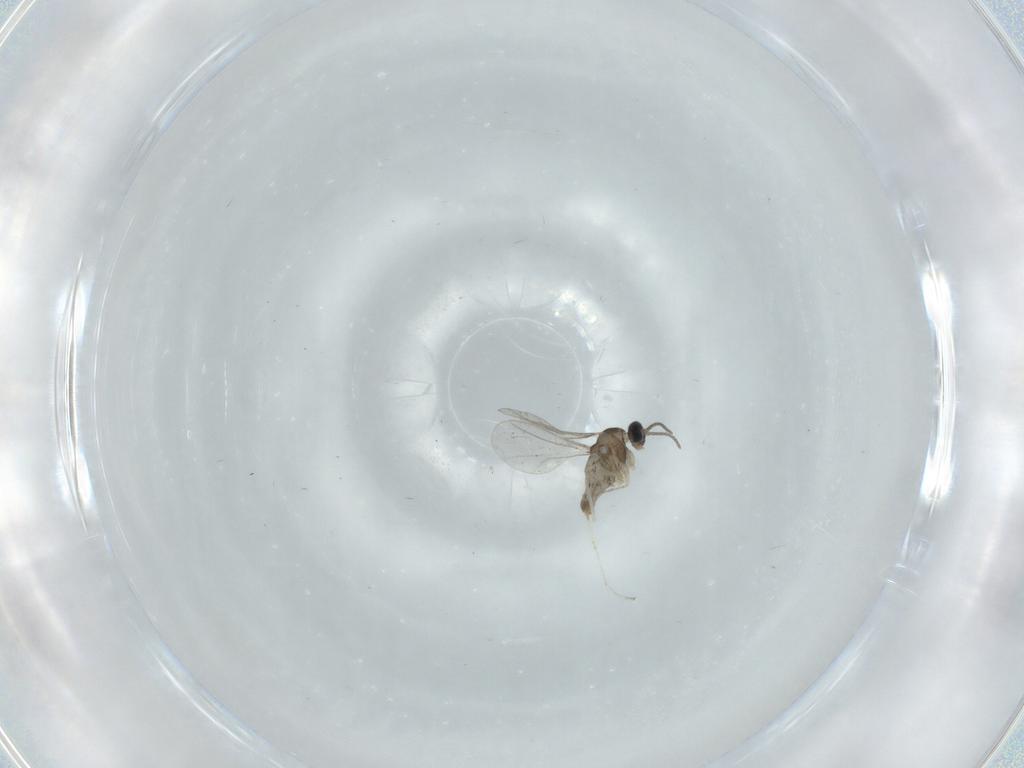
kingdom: Animalia
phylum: Arthropoda
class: Insecta
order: Diptera
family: Cecidomyiidae
